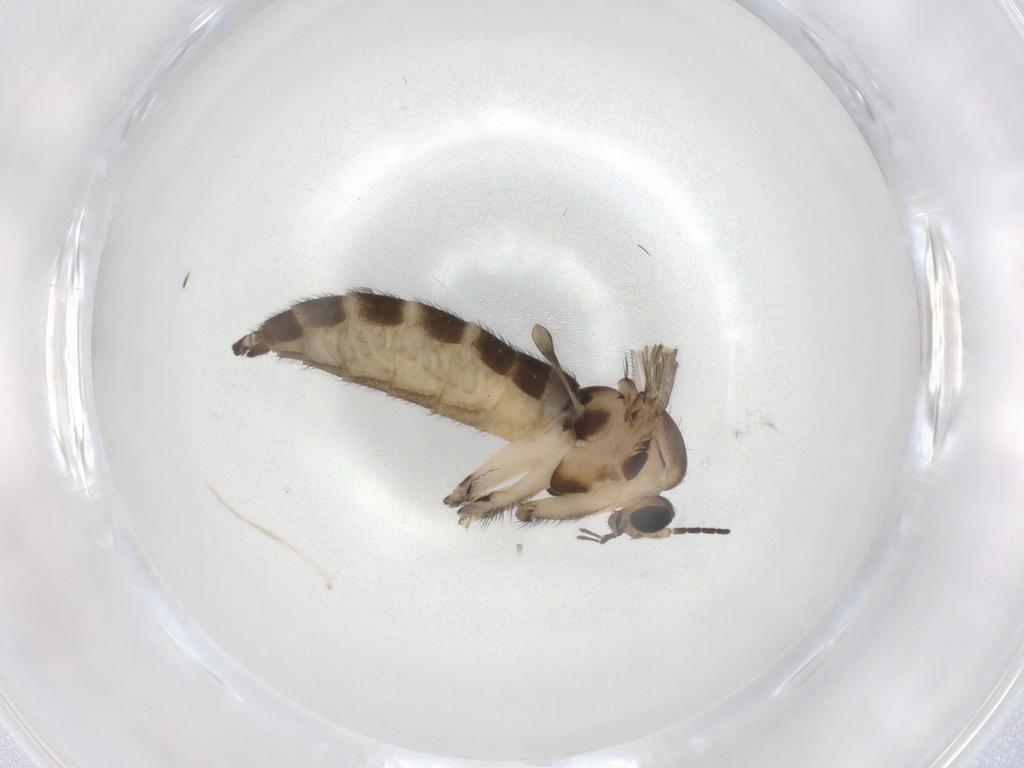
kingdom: Animalia
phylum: Arthropoda
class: Insecta
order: Diptera
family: Sciaridae
